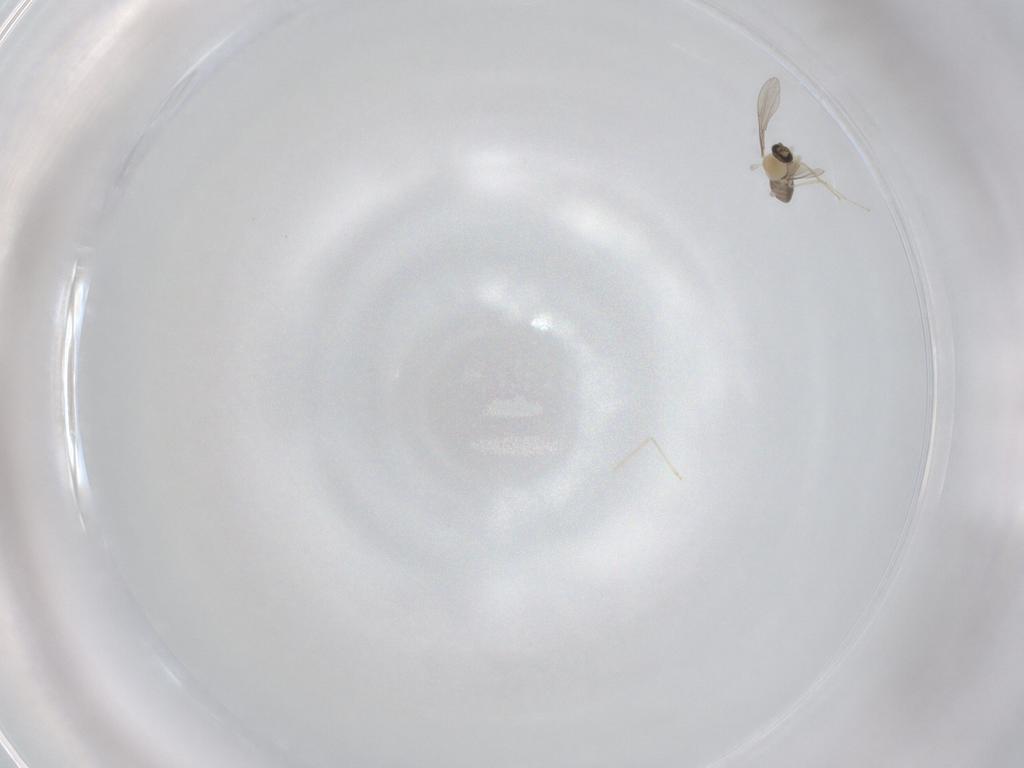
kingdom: Animalia
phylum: Arthropoda
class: Insecta
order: Diptera
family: Cecidomyiidae
